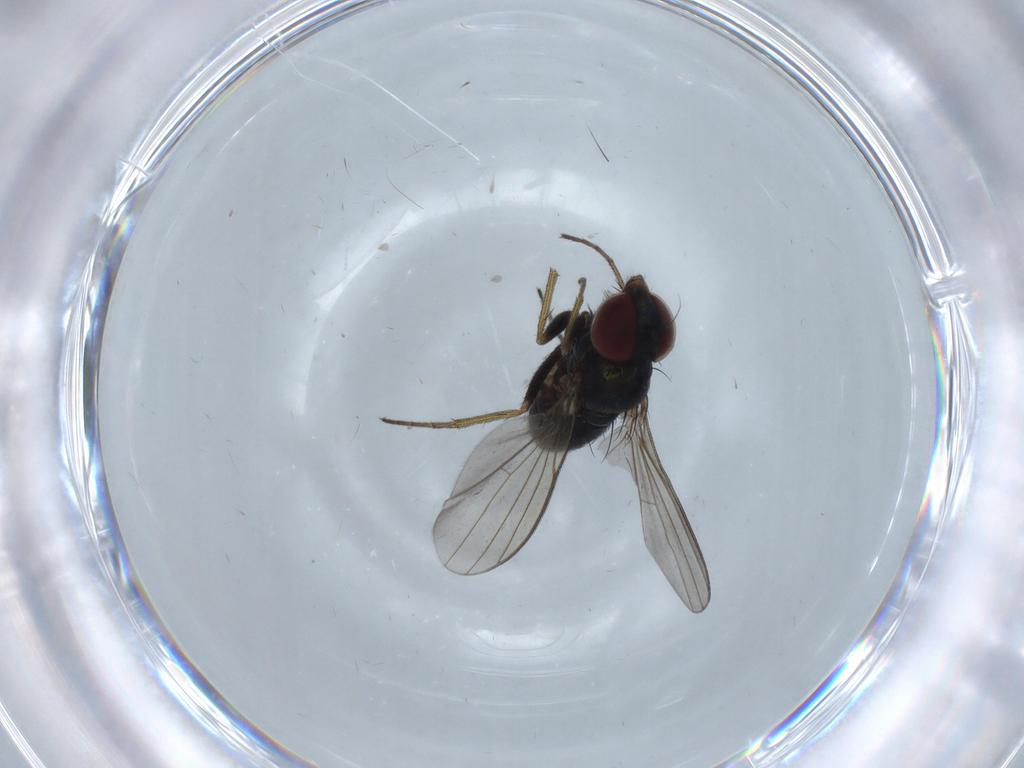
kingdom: Animalia
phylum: Arthropoda
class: Insecta
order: Diptera
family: Dolichopodidae
